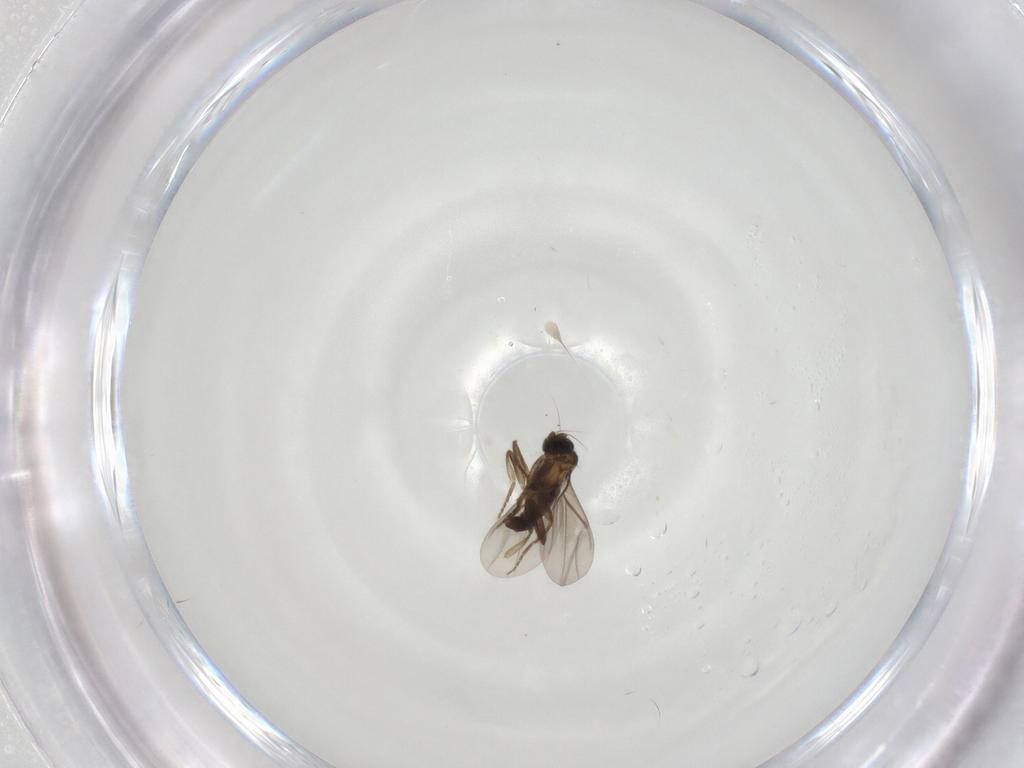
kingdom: Animalia
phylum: Arthropoda
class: Insecta
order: Diptera
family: Phoridae
